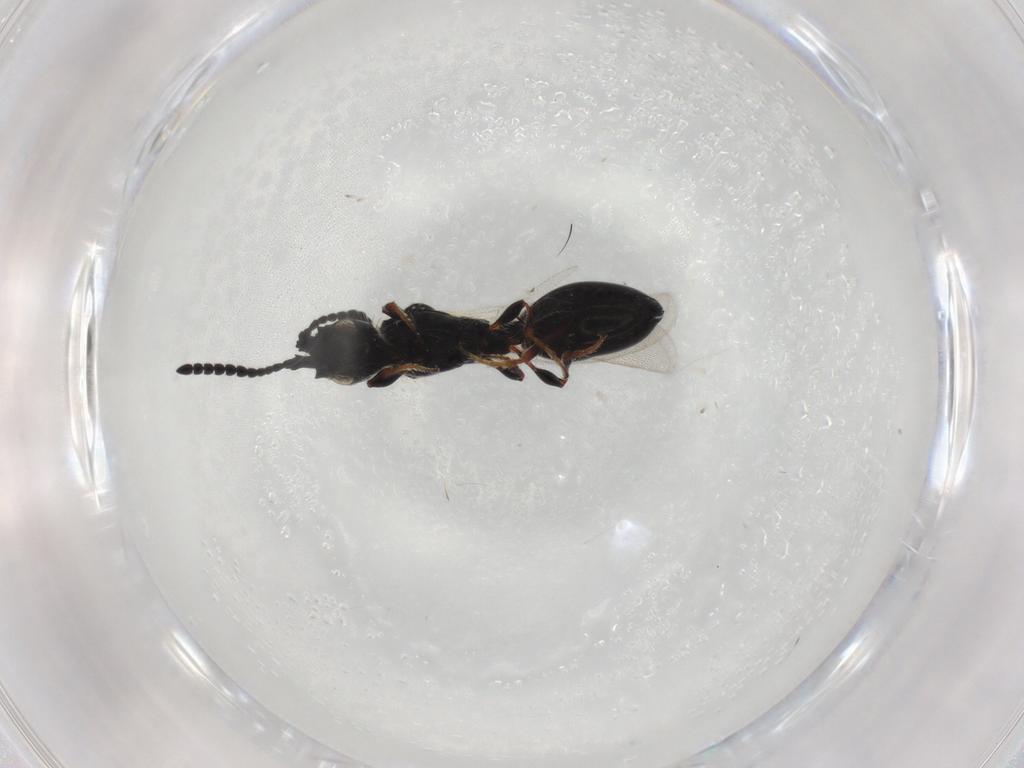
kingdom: Animalia
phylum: Arthropoda
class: Insecta
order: Hymenoptera
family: Diapriidae
